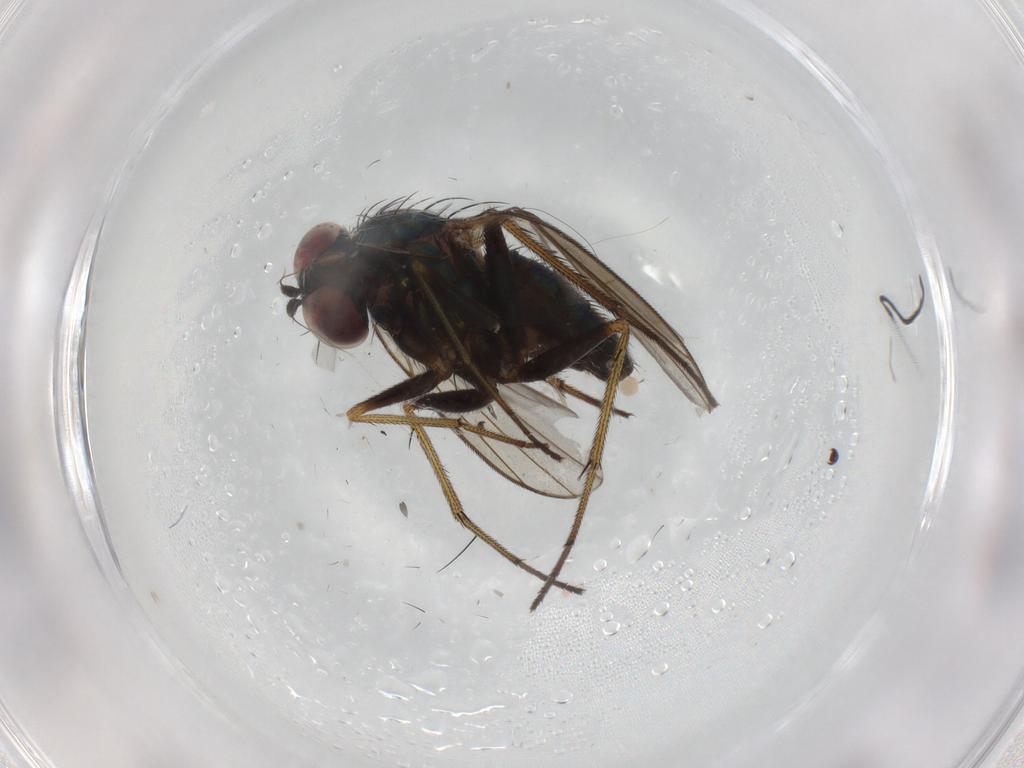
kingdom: Animalia
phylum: Arthropoda
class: Insecta
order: Diptera
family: Dolichopodidae
